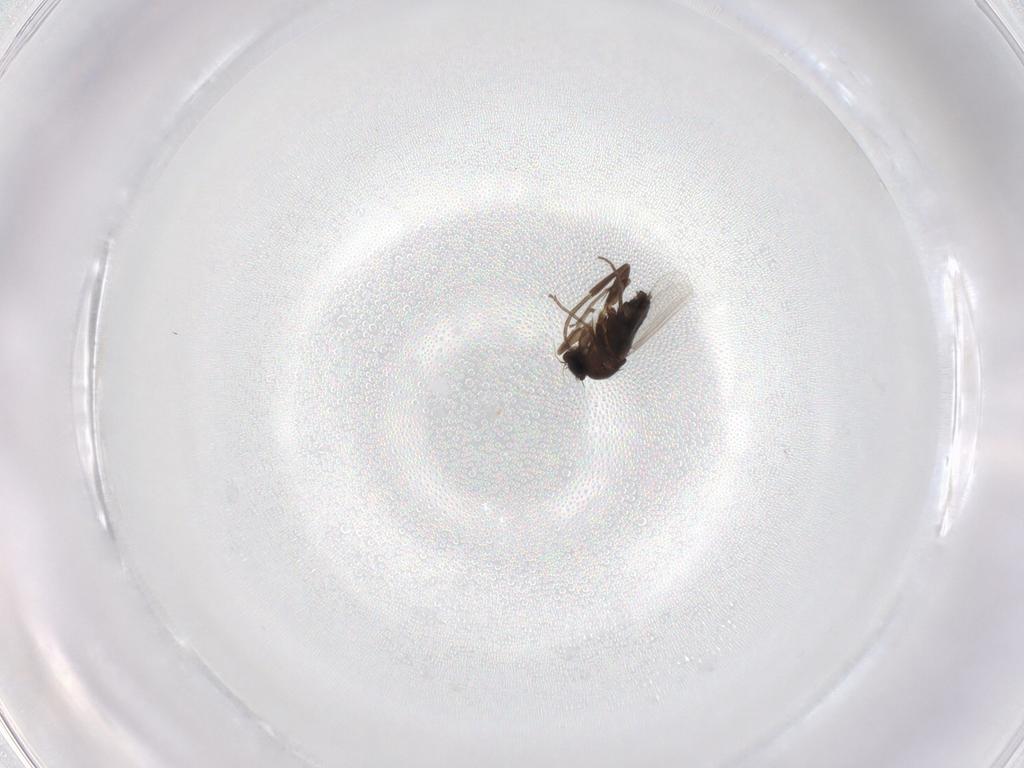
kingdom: Animalia
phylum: Arthropoda
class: Insecta
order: Diptera
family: Phoridae
